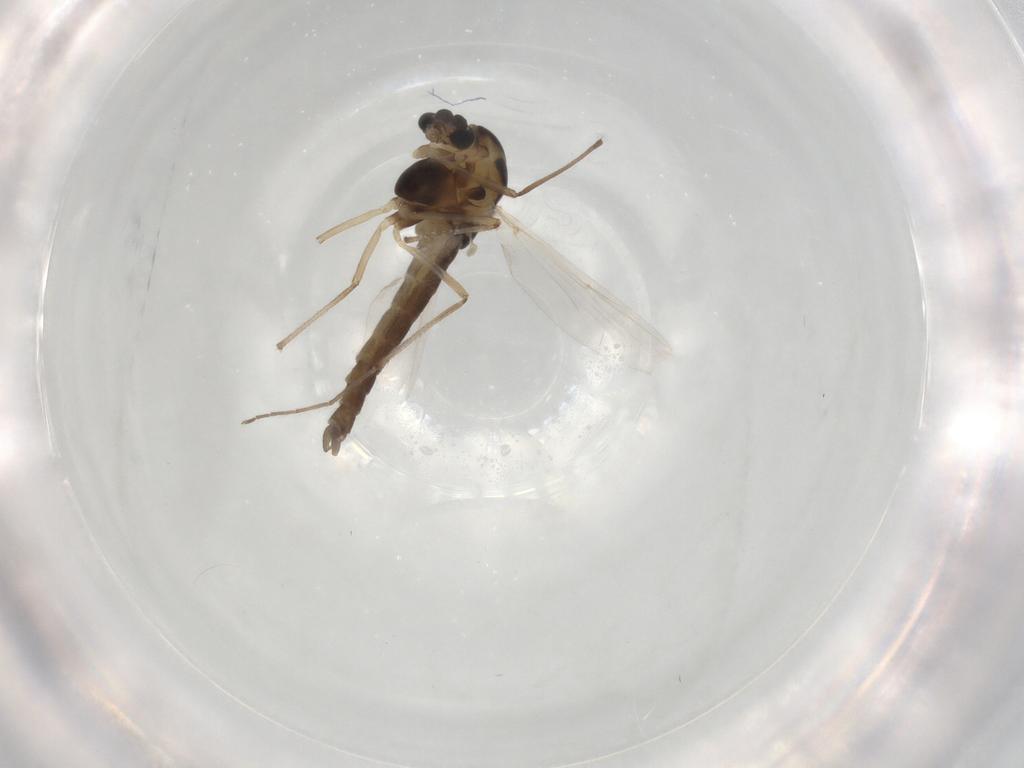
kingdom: Animalia
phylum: Arthropoda
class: Insecta
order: Diptera
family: Chironomidae
